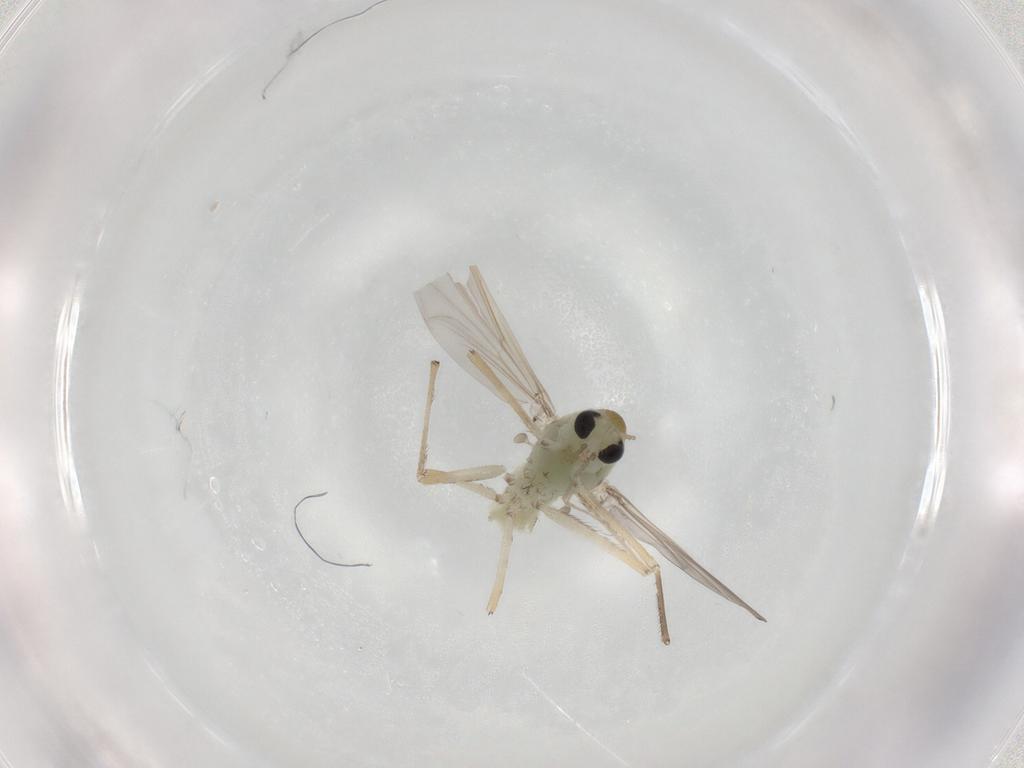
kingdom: Animalia
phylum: Arthropoda
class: Insecta
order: Diptera
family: Chironomidae
